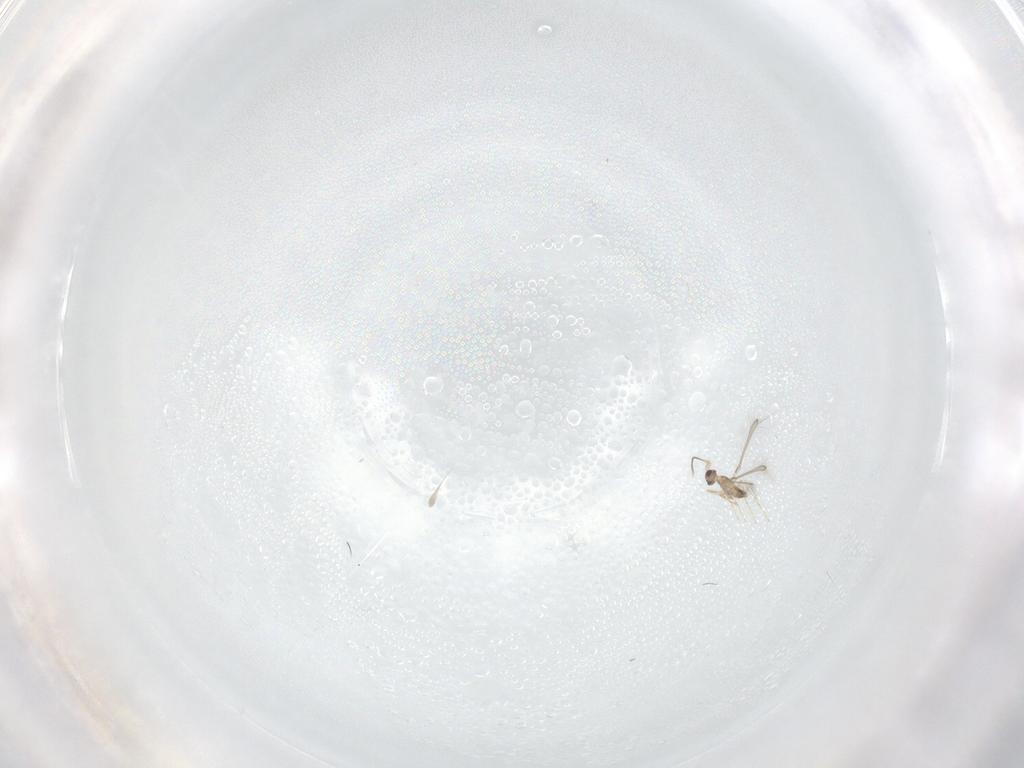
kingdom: Animalia
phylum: Arthropoda
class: Insecta
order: Hymenoptera
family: Mymaridae
